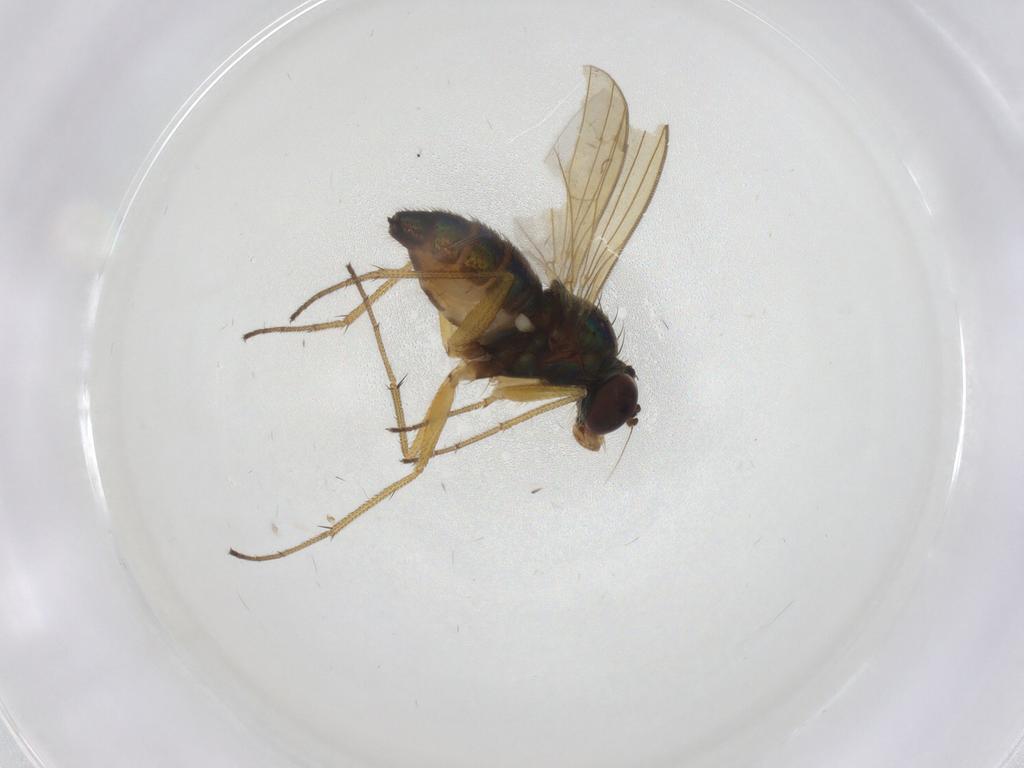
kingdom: Animalia
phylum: Arthropoda
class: Insecta
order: Diptera
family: Dolichopodidae
